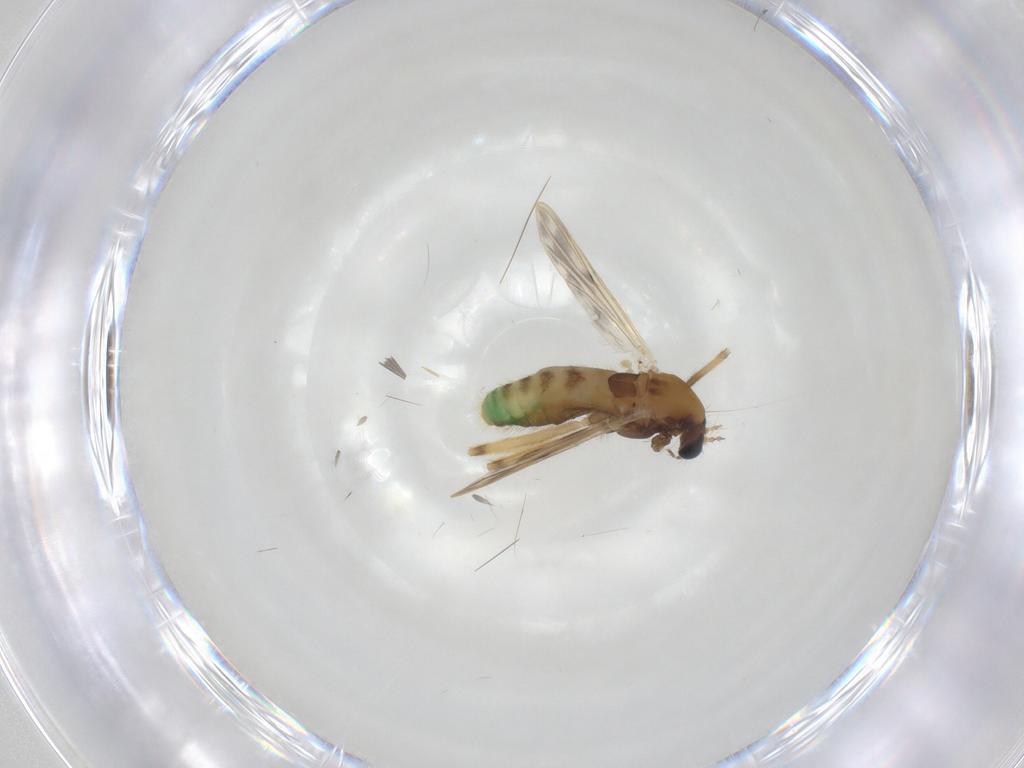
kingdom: Animalia
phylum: Arthropoda
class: Insecta
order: Diptera
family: Chironomidae
